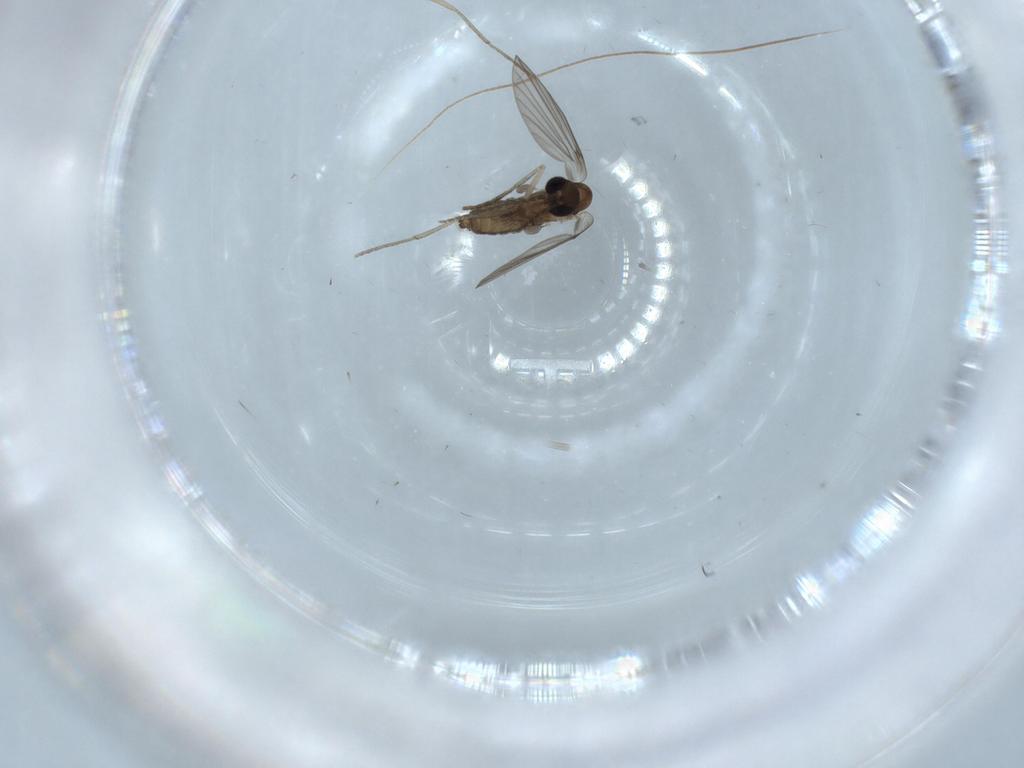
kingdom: Animalia
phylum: Arthropoda
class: Insecta
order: Diptera
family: Psychodidae
